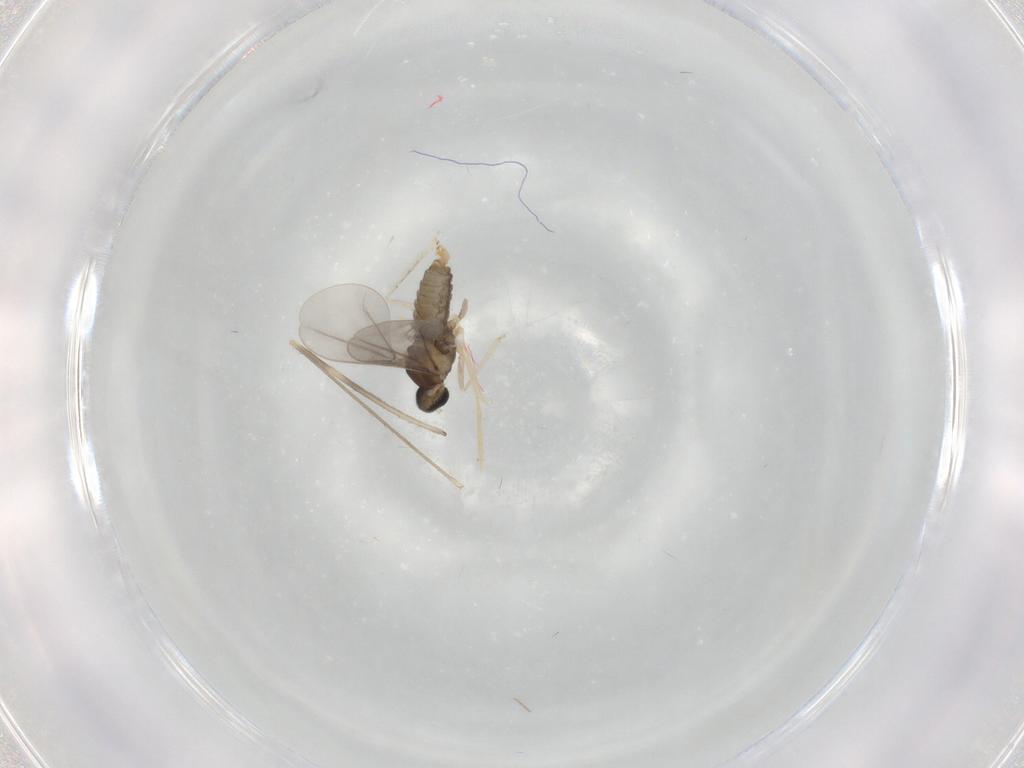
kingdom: Animalia
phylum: Arthropoda
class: Insecta
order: Diptera
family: Cecidomyiidae
